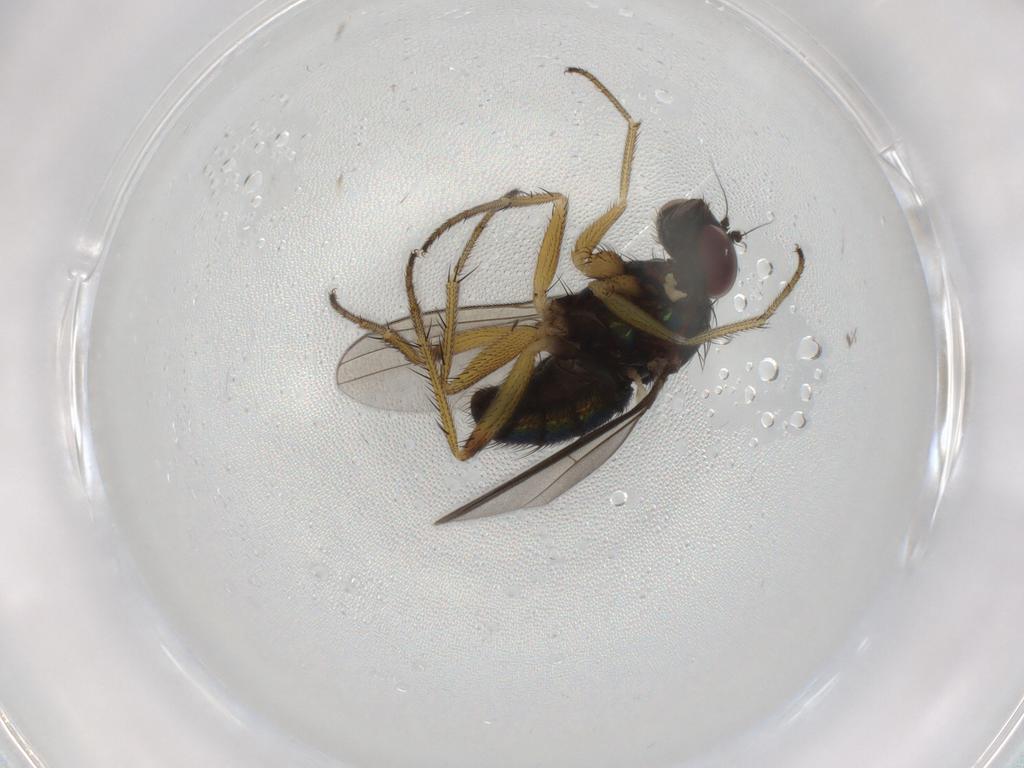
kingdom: Animalia
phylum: Arthropoda
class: Insecta
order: Diptera
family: Dolichopodidae
